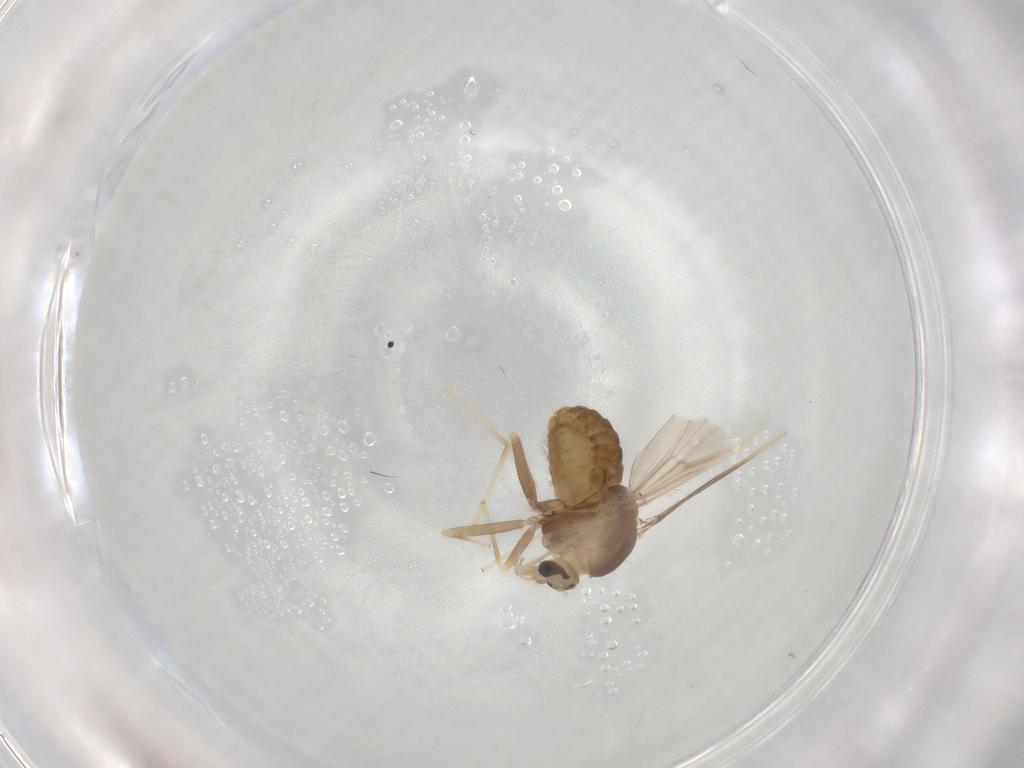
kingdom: Animalia
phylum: Arthropoda
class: Insecta
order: Diptera
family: Chironomidae
